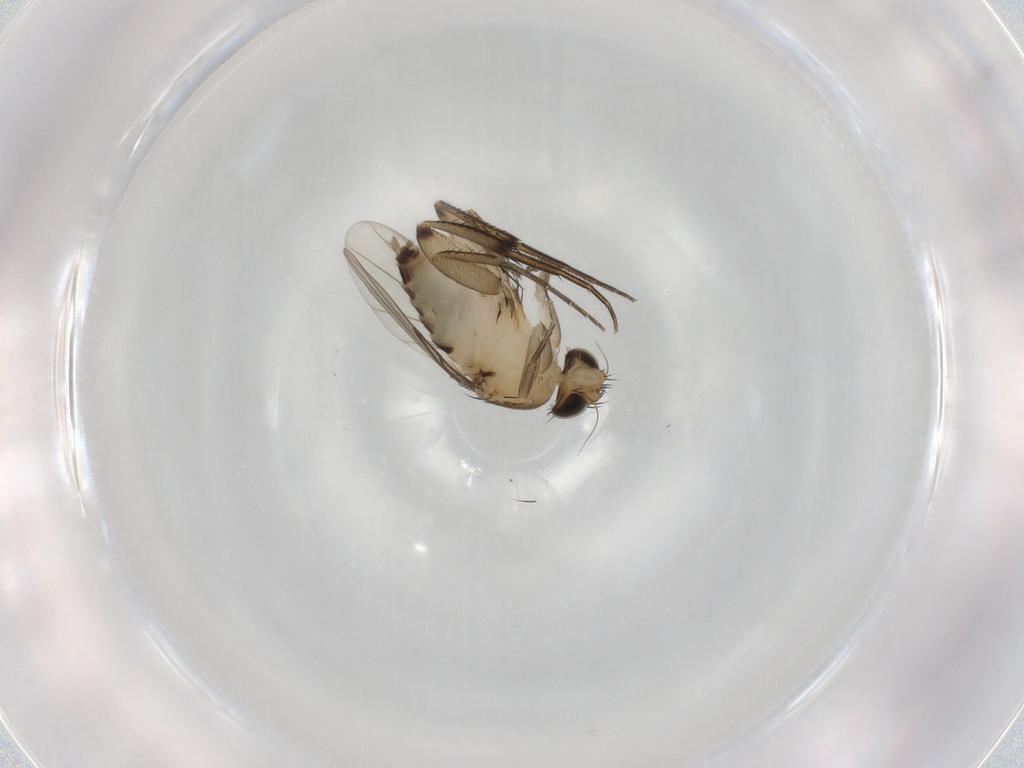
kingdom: Animalia
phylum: Arthropoda
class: Insecta
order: Diptera
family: Phoridae
